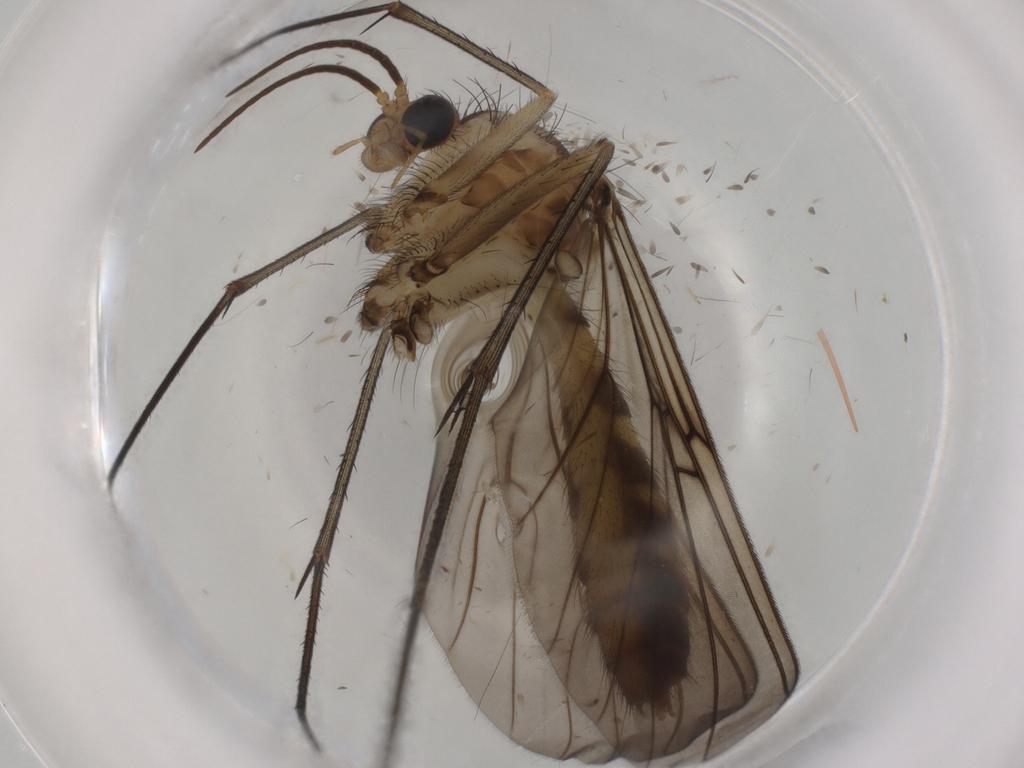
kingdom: Animalia
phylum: Arthropoda
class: Insecta
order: Diptera
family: Mycetophilidae
